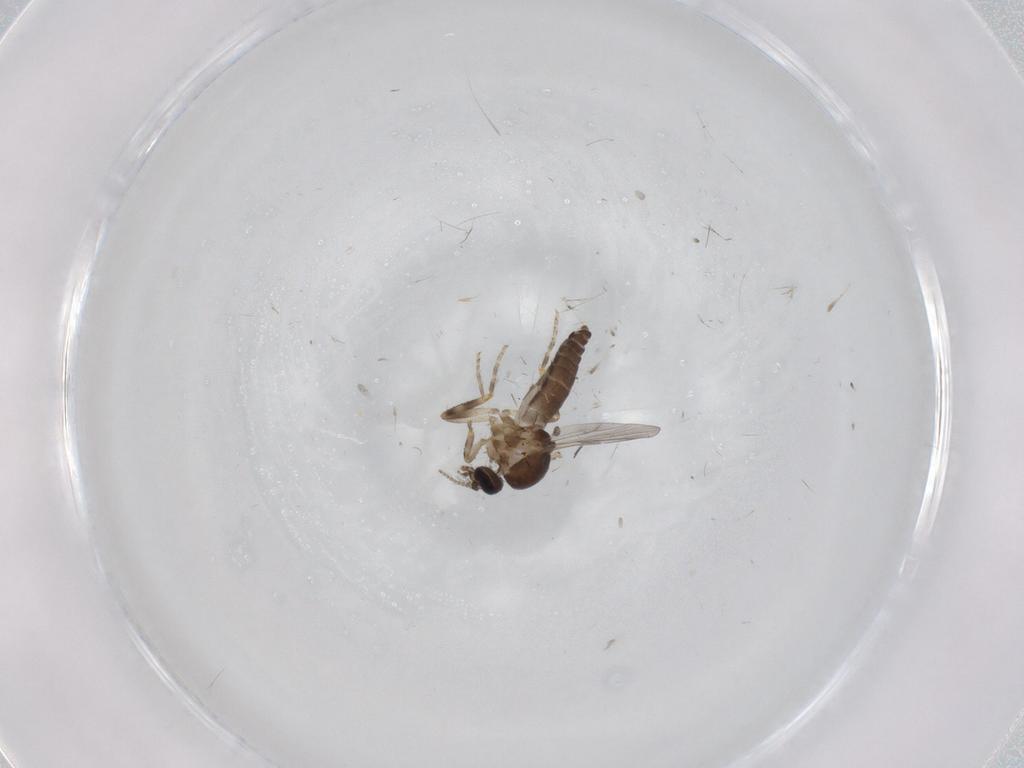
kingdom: Animalia
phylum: Arthropoda
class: Insecta
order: Diptera
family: Ceratopogonidae
